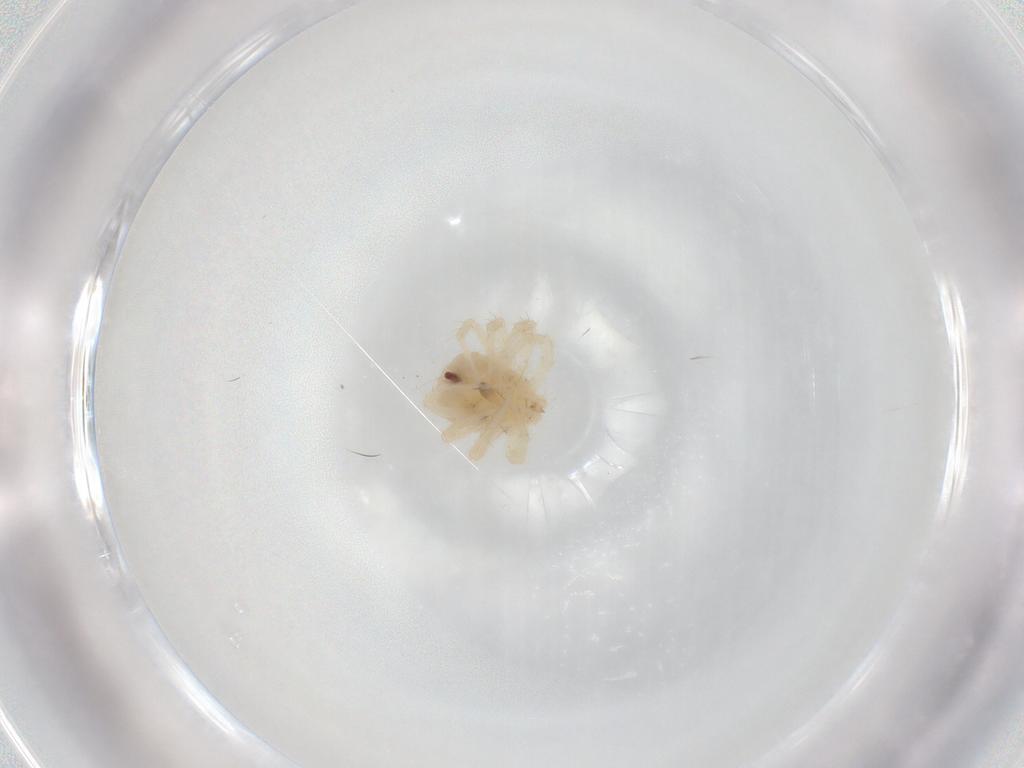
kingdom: Animalia
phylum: Arthropoda
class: Arachnida
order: Trombidiformes
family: Anystidae
